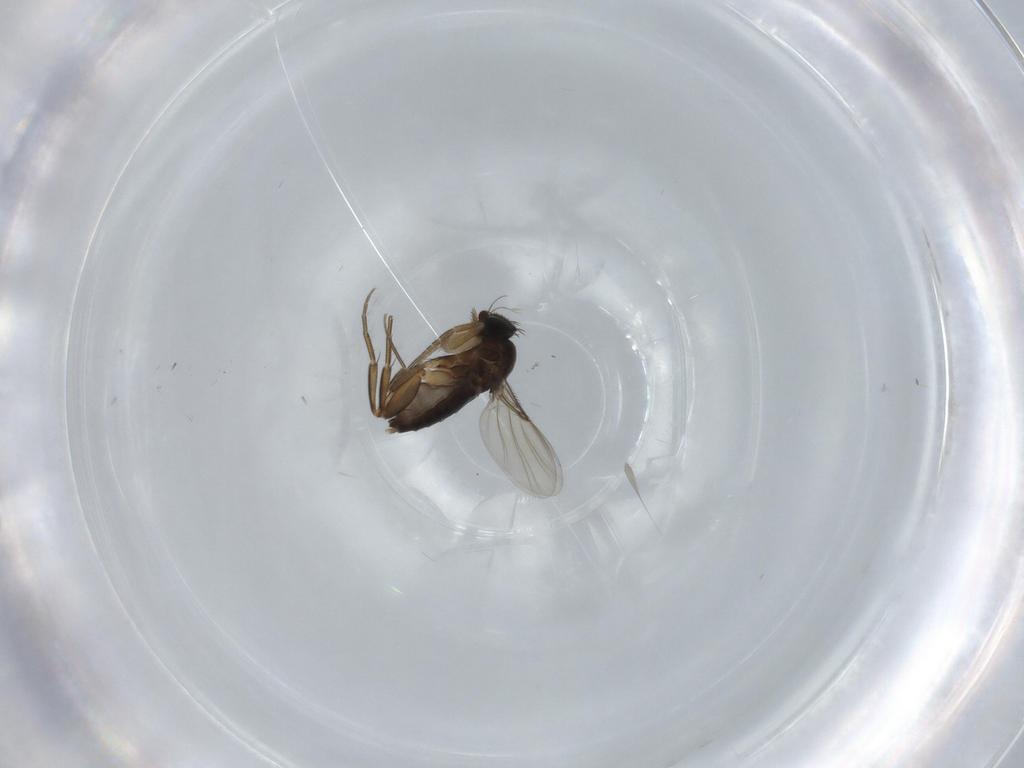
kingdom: Animalia
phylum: Arthropoda
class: Insecta
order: Diptera
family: Phoridae
